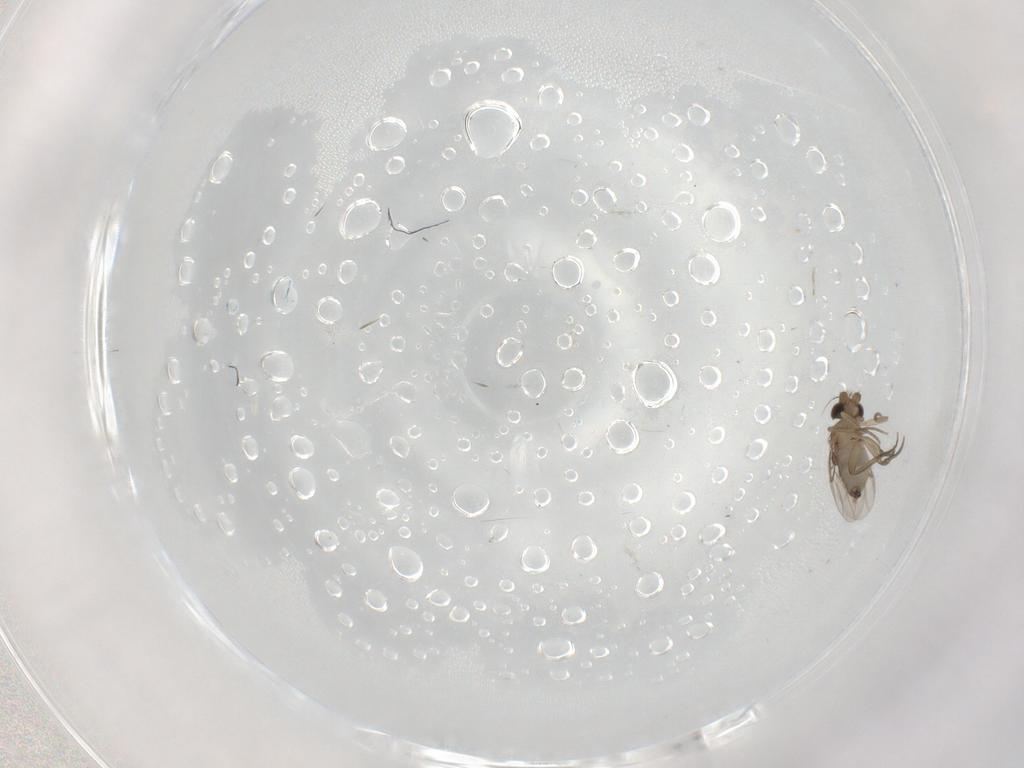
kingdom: Animalia
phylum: Arthropoda
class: Insecta
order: Diptera
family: Phoridae
